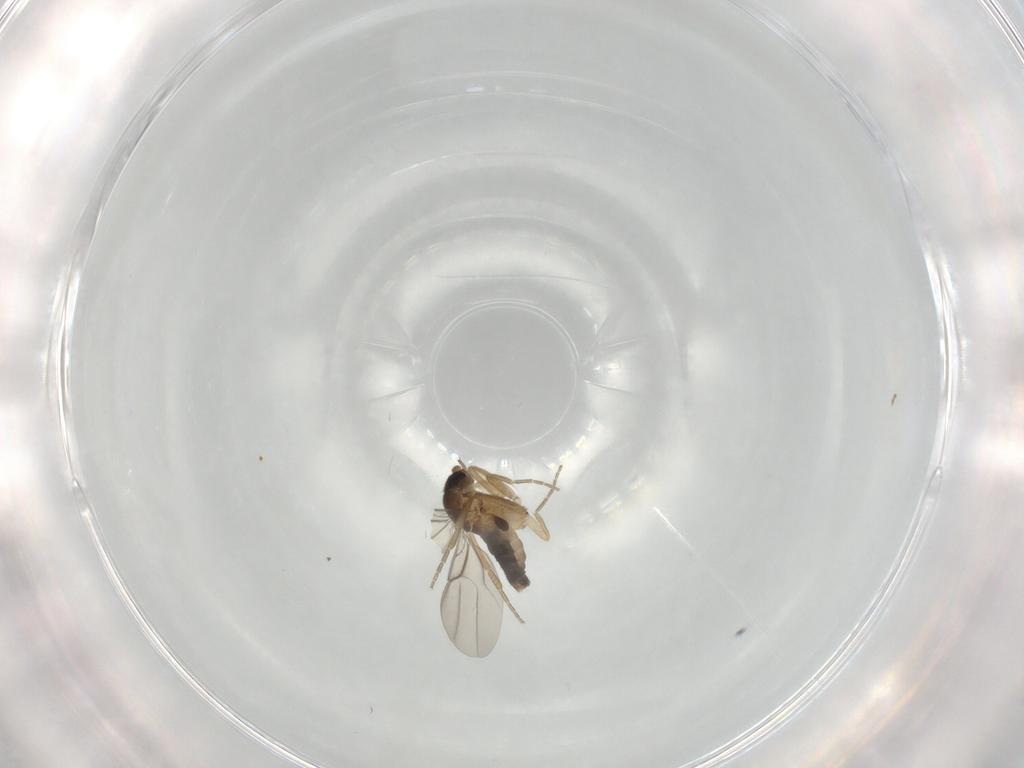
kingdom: Animalia
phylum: Arthropoda
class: Insecta
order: Diptera
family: Phoridae
